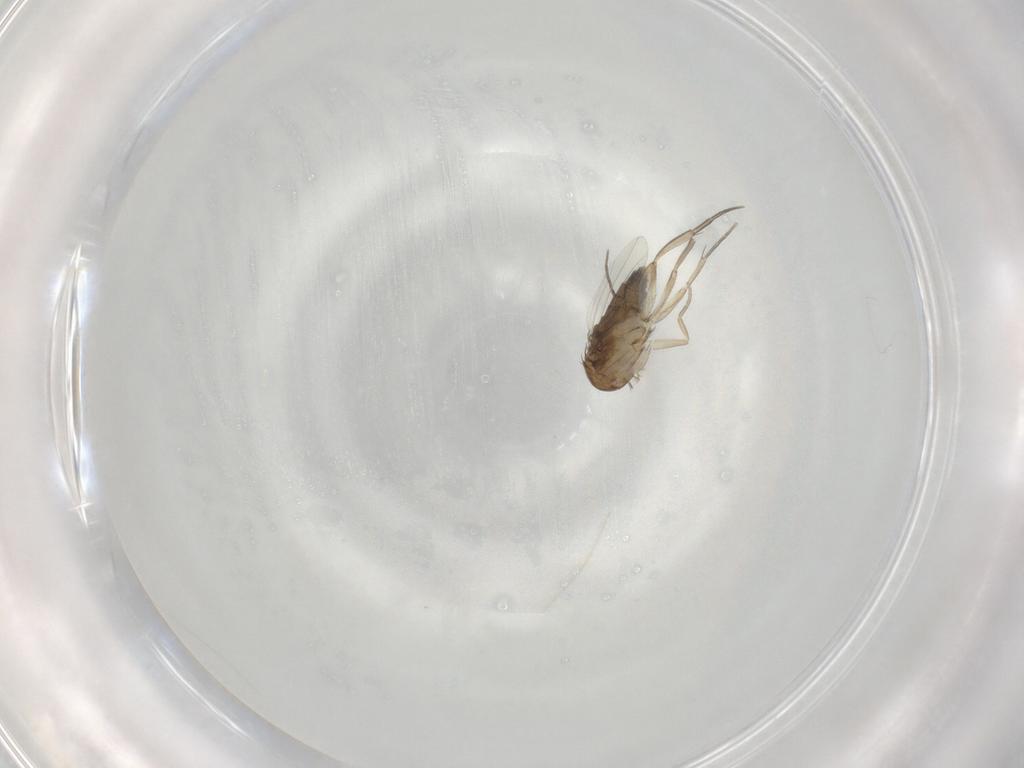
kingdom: Animalia
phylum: Arthropoda
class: Insecta
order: Diptera
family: Phoridae
